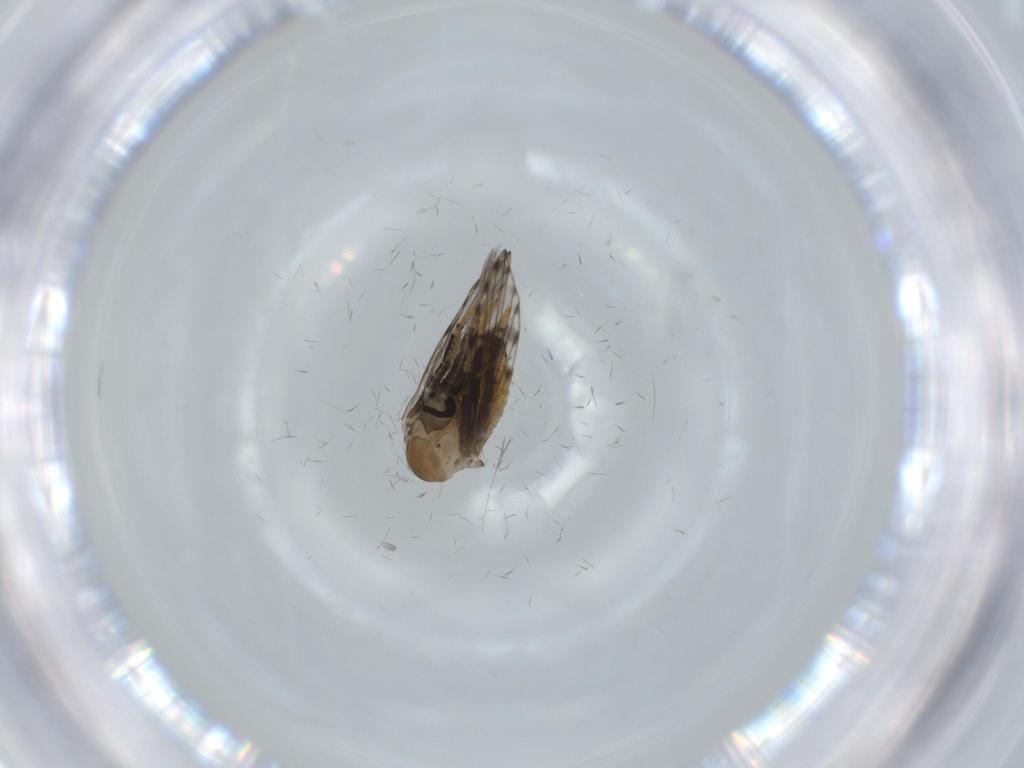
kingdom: Animalia
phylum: Arthropoda
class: Insecta
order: Diptera
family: Psychodidae
